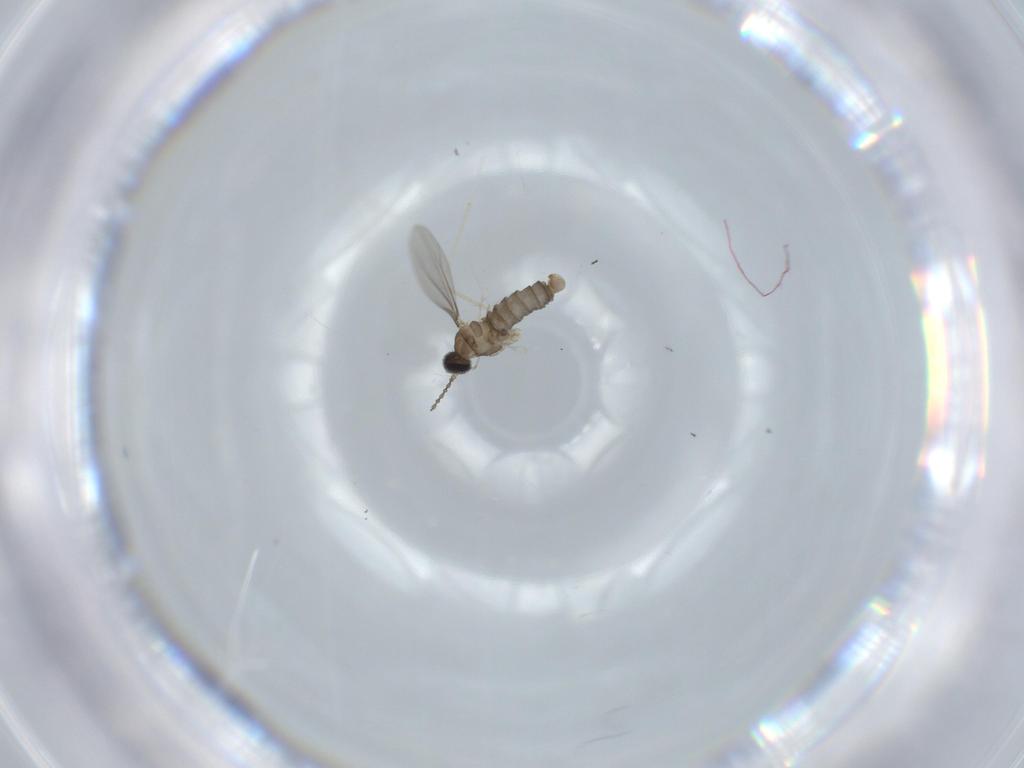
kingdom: Animalia
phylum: Arthropoda
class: Insecta
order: Diptera
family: Cecidomyiidae
